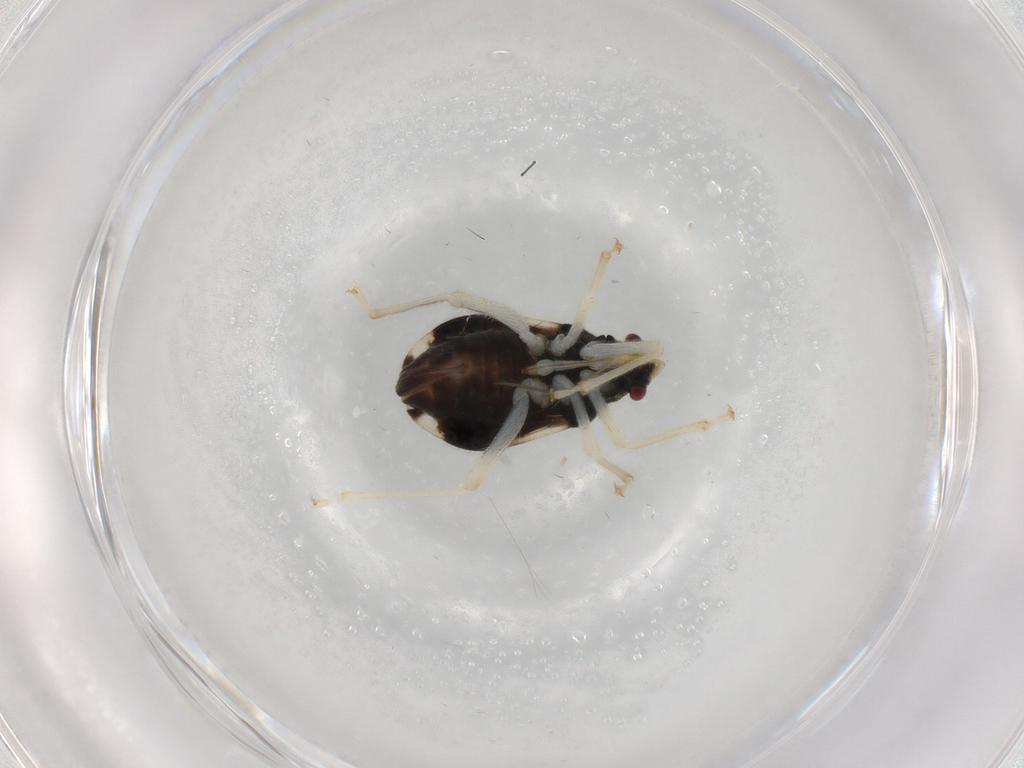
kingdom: Animalia
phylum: Arthropoda
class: Insecta
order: Hemiptera
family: Miridae
